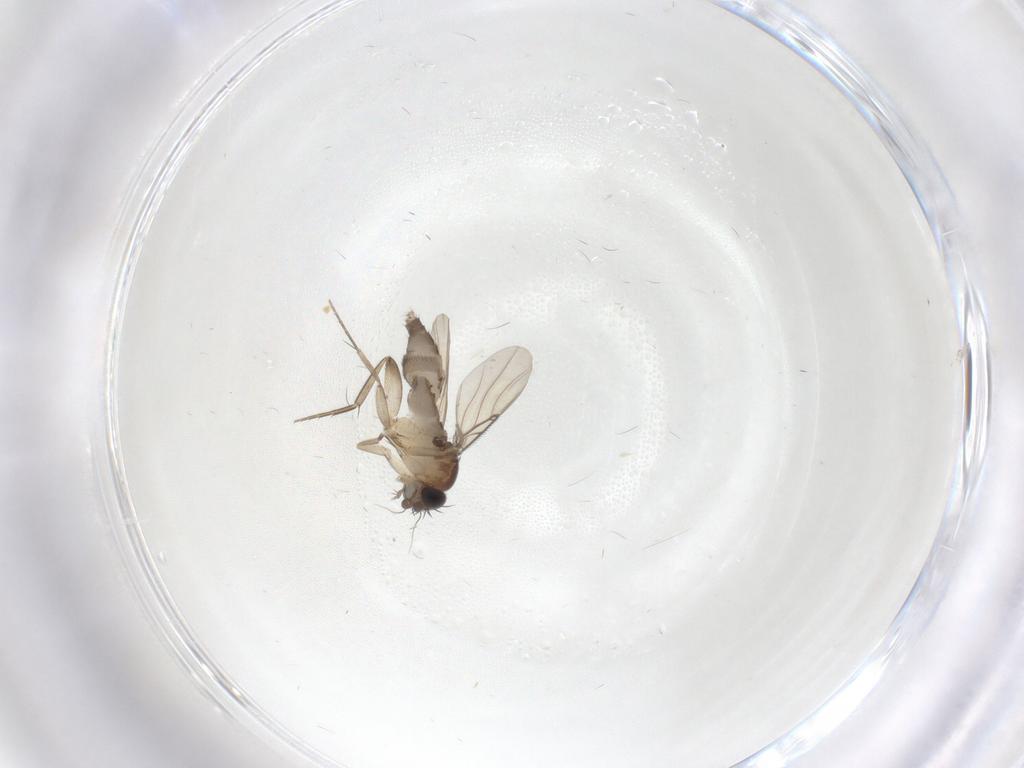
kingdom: Animalia
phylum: Arthropoda
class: Insecta
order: Diptera
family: Phoridae
